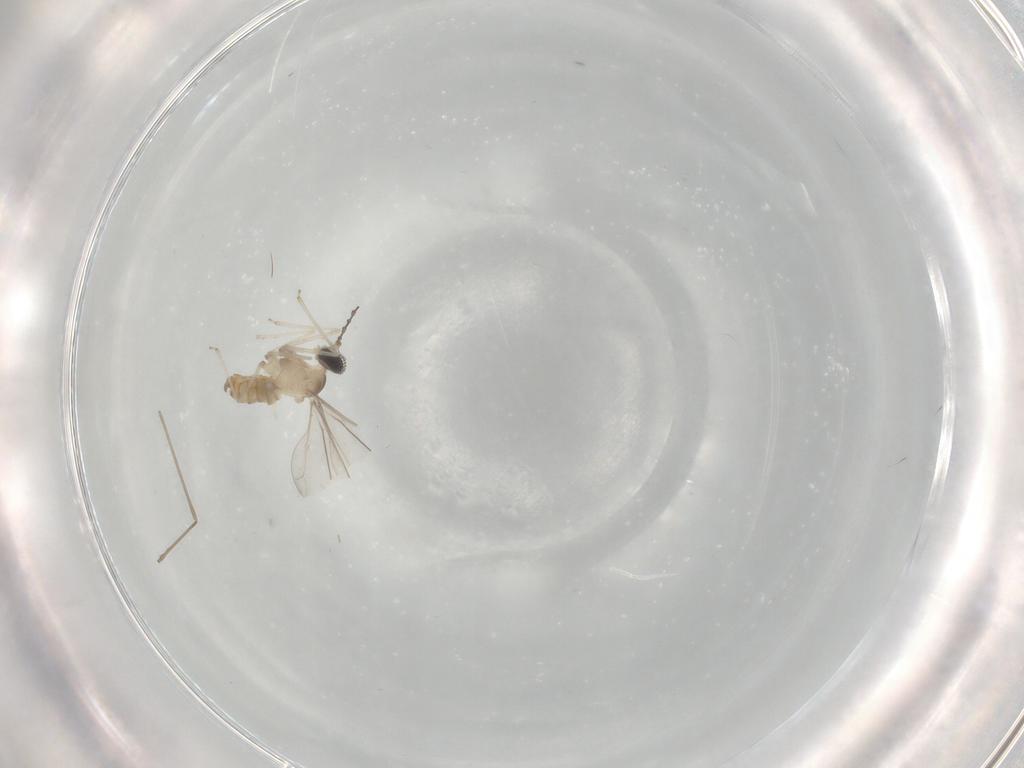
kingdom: Animalia
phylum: Arthropoda
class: Insecta
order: Diptera
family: Cecidomyiidae
